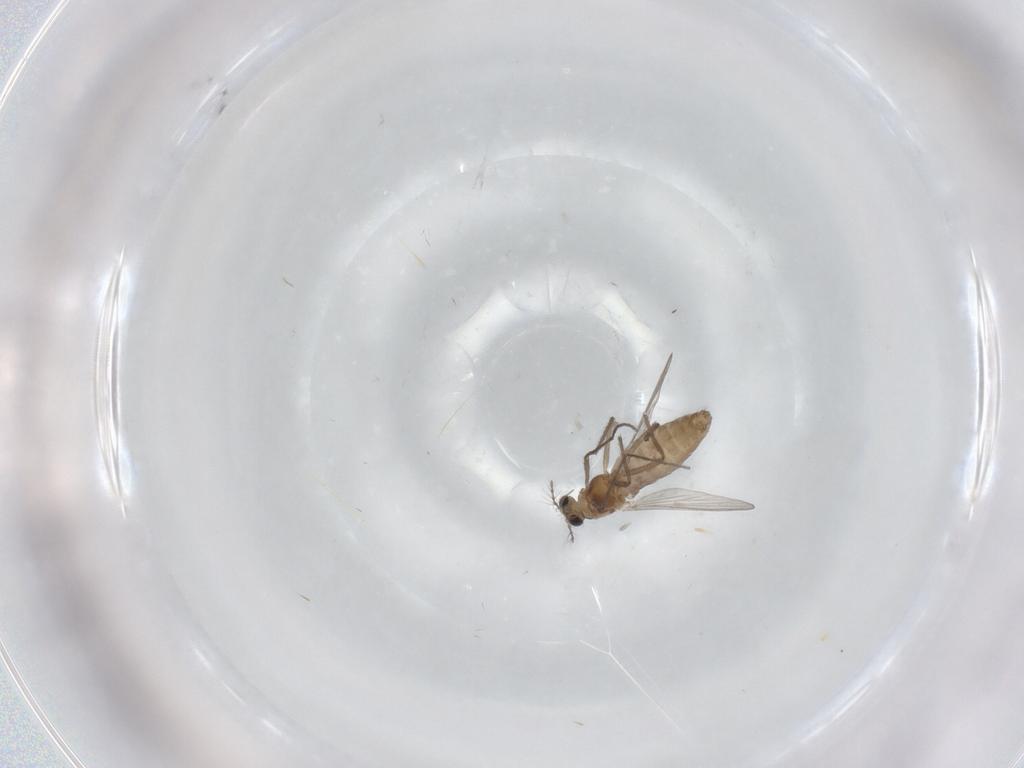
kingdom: Animalia
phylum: Arthropoda
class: Insecta
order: Diptera
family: Chironomidae
